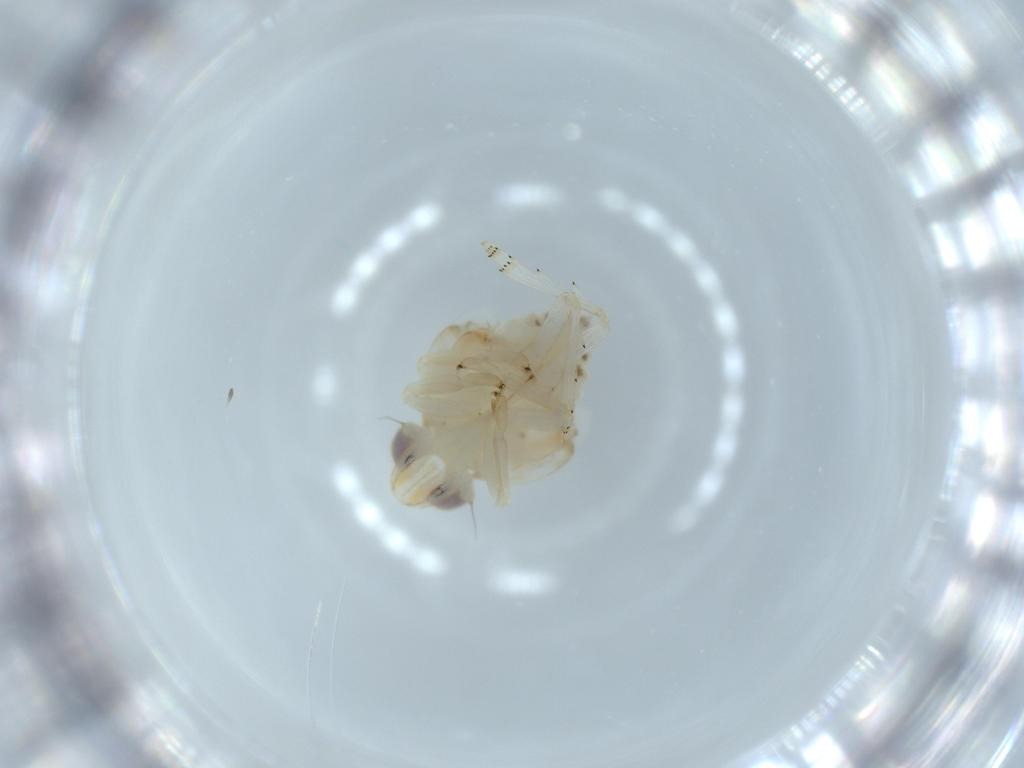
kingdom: Animalia
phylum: Arthropoda
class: Insecta
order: Hemiptera
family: Nogodinidae
